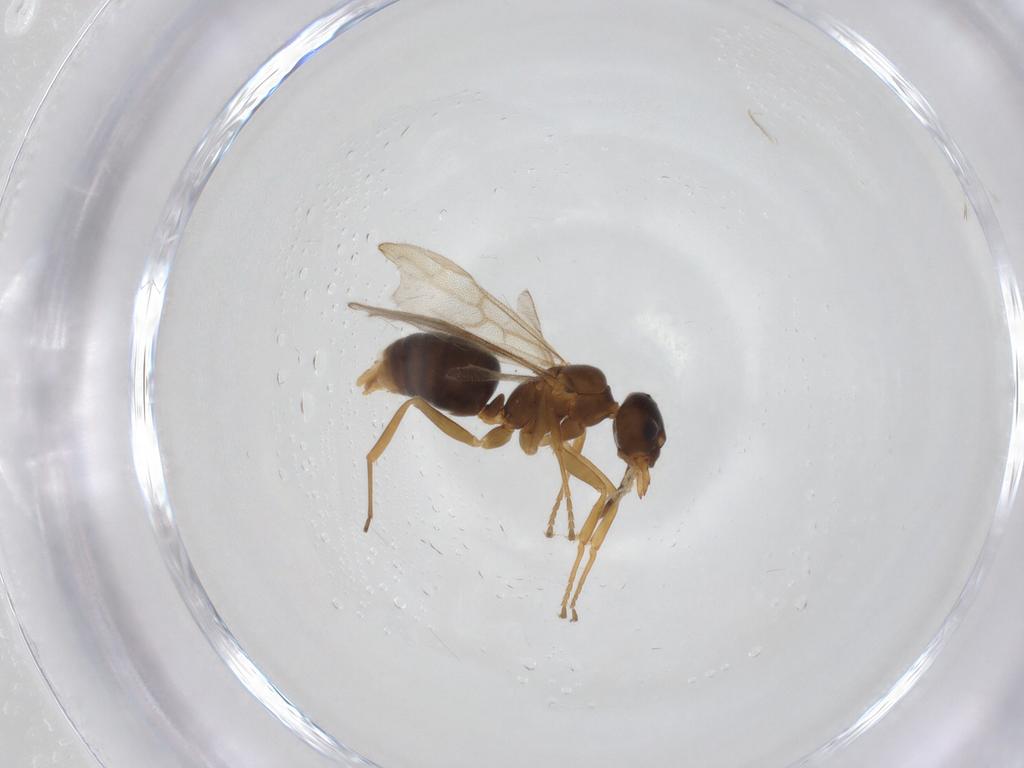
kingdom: Animalia
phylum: Arthropoda
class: Insecta
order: Hymenoptera
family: Formicidae
